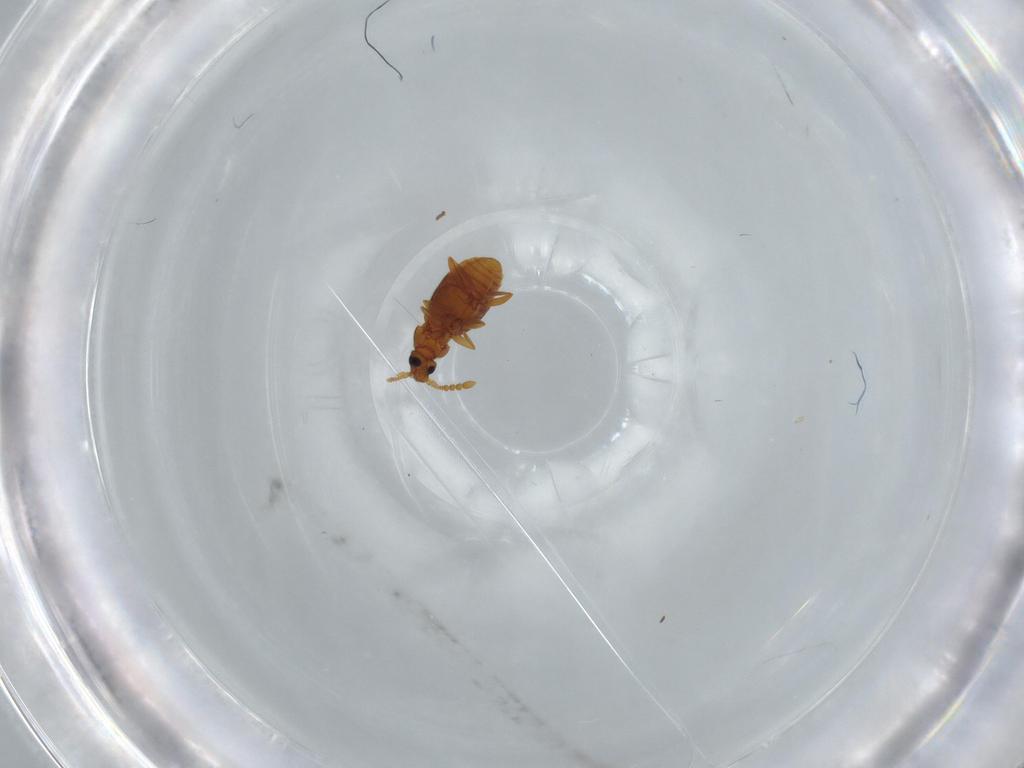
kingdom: Animalia
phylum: Arthropoda
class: Insecta
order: Coleoptera
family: Staphylinidae
